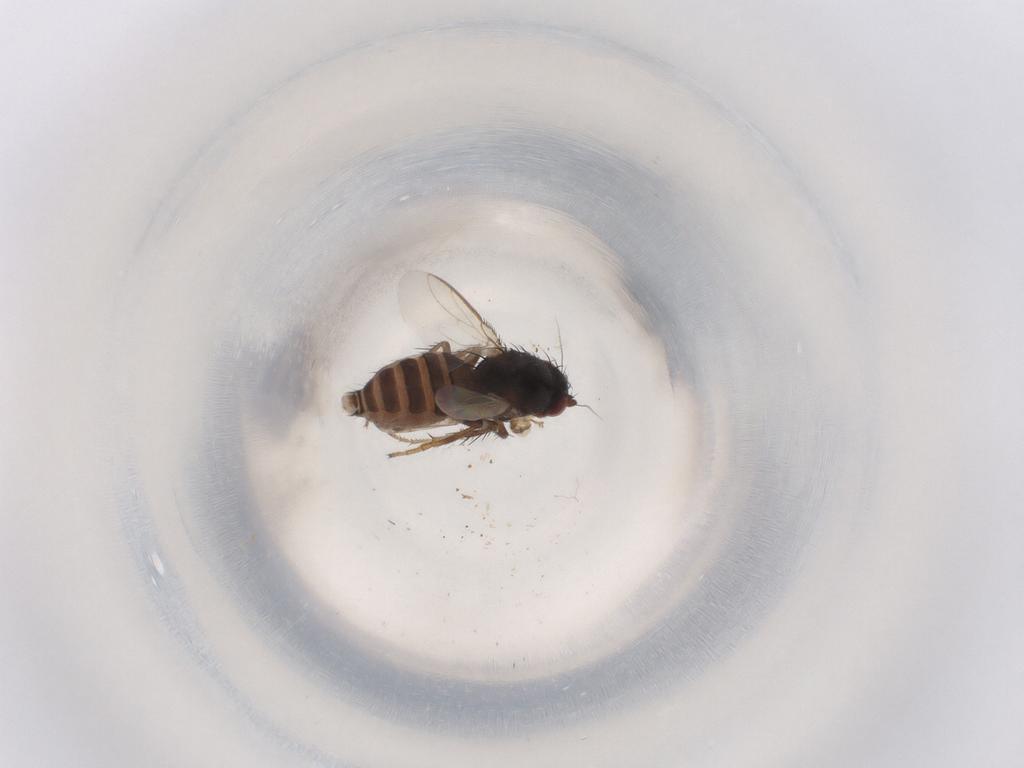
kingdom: Animalia
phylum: Arthropoda
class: Insecta
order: Diptera
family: Sphaeroceridae
